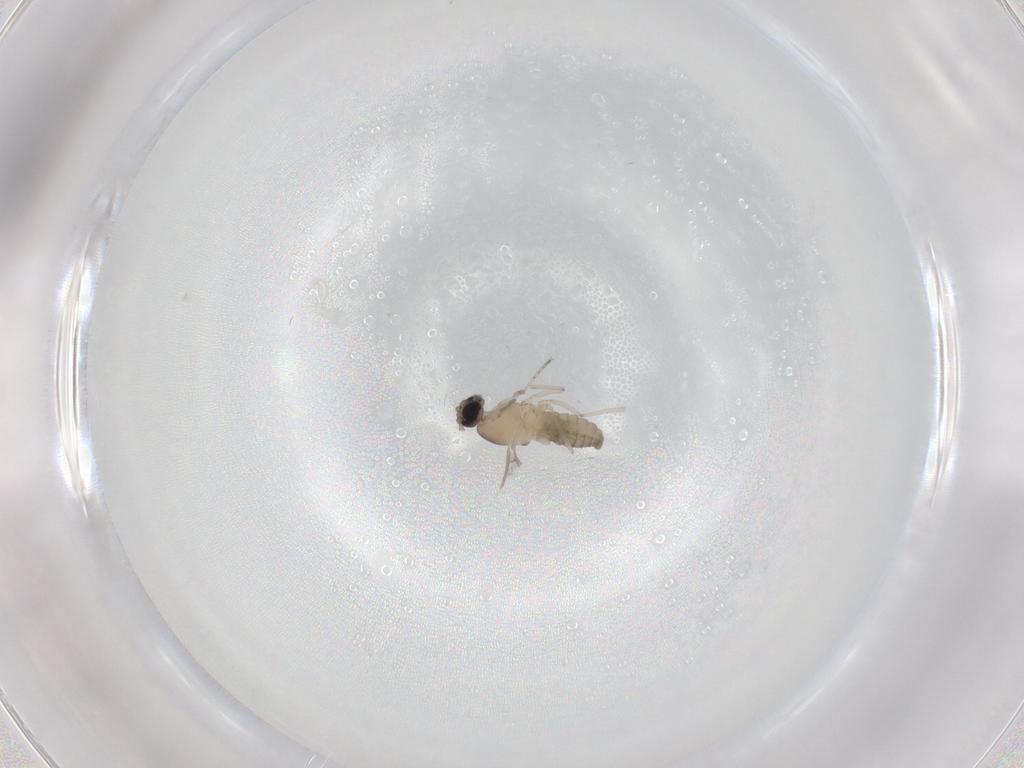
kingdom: Animalia
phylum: Arthropoda
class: Insecta
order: Diptera
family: Cecidomyiidae
